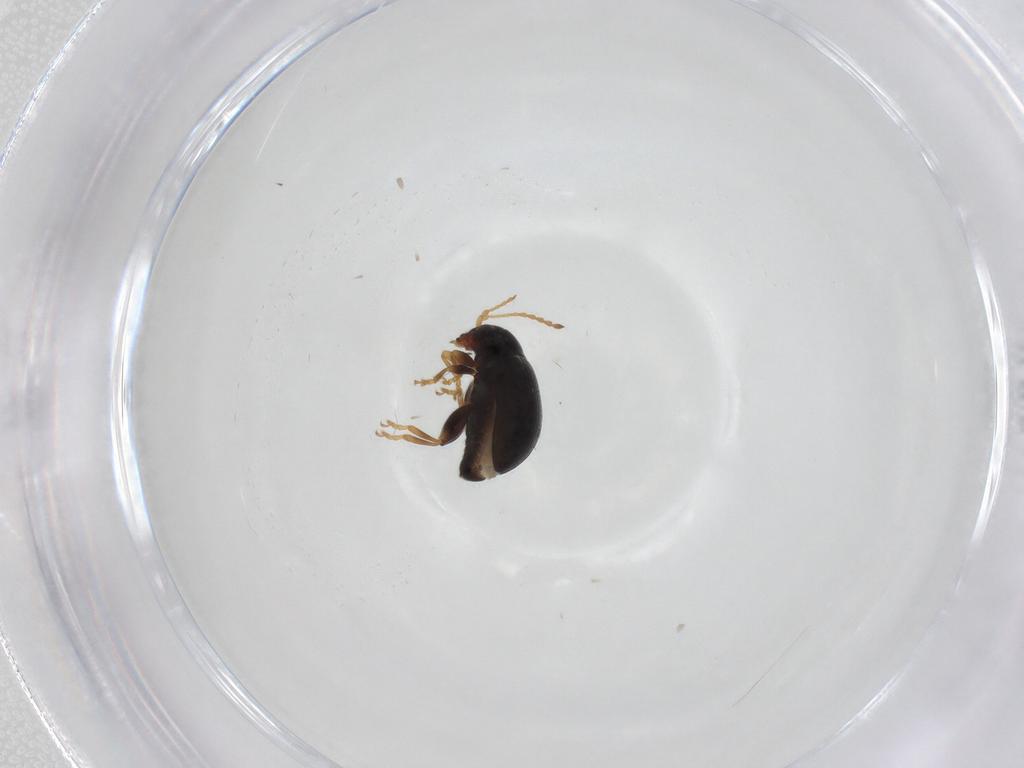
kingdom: Animalia
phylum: Arthropoda
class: Insecta
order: Coleoptera
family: Chrysomelidae
